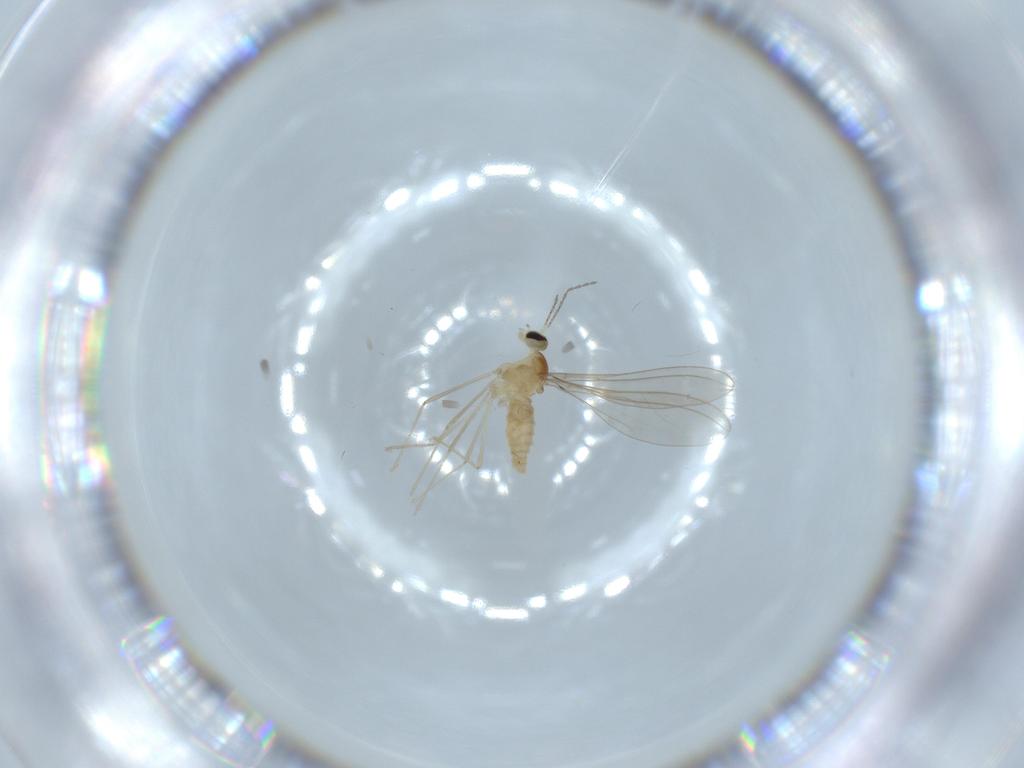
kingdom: Animalia
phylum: Arthropoda
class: Insecta
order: Diptera
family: Cecidomyiidae
